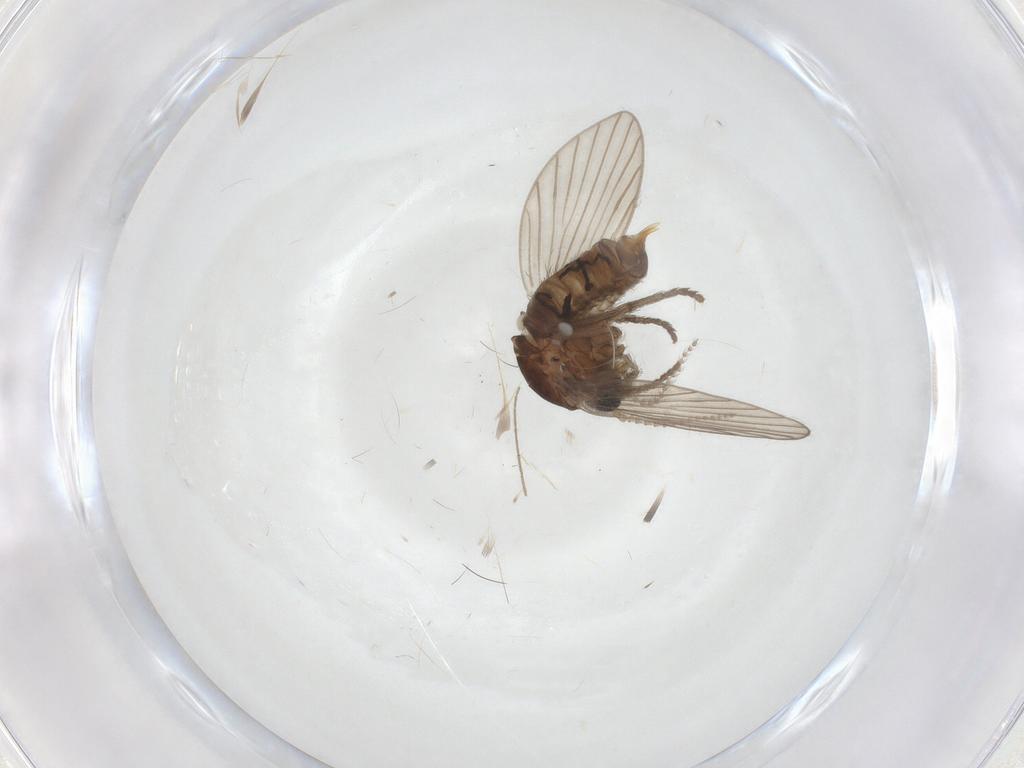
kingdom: Animalia
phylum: Arthropoda
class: Insecta
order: Diptera
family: Psychodidae
